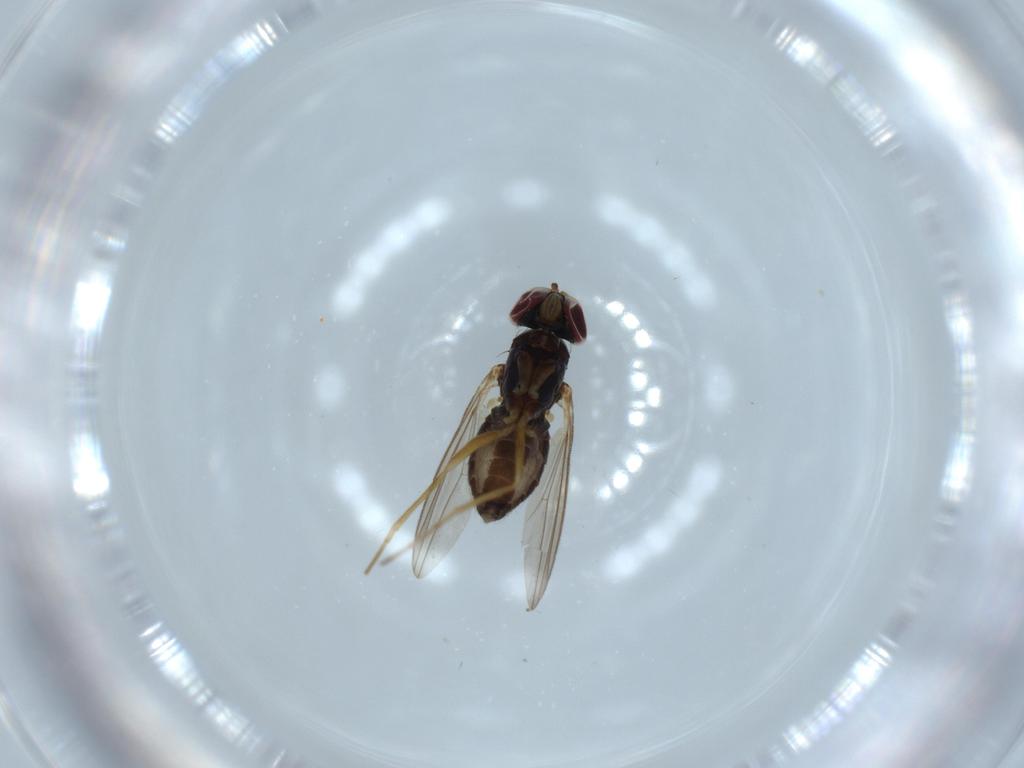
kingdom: Animalia
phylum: Arthropoda
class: Insecta
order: Diptera
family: Dolichopodidae
